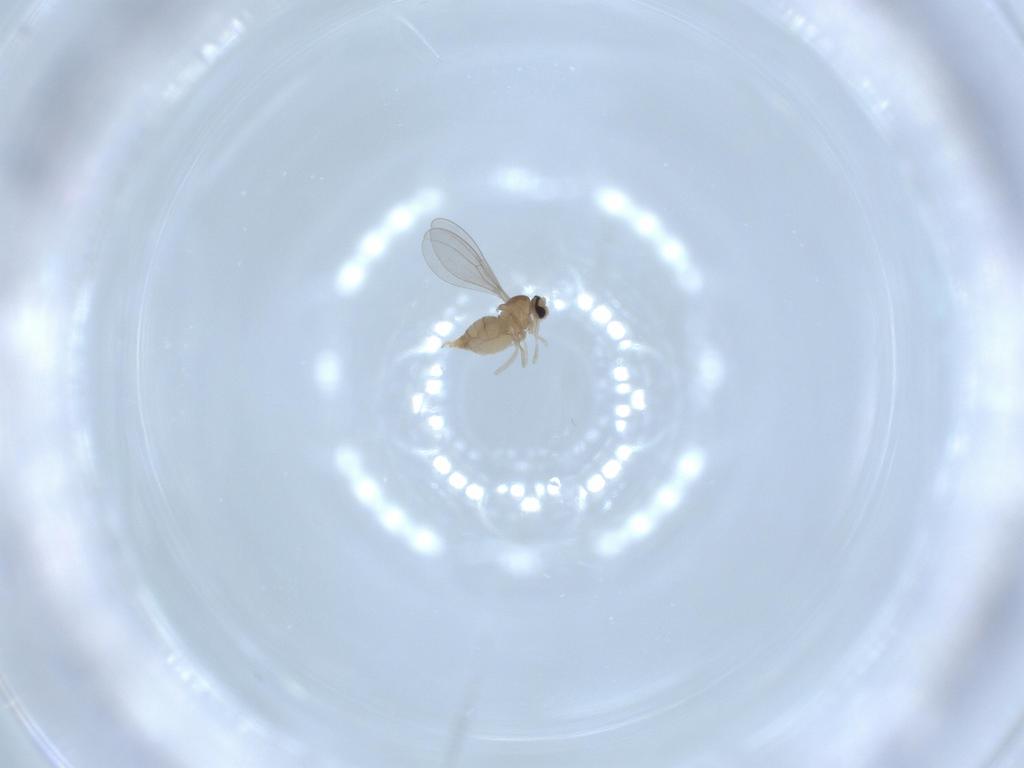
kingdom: Animalia
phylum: Arthropoda
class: Insecta
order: Diptera
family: Cecidomyiidae
